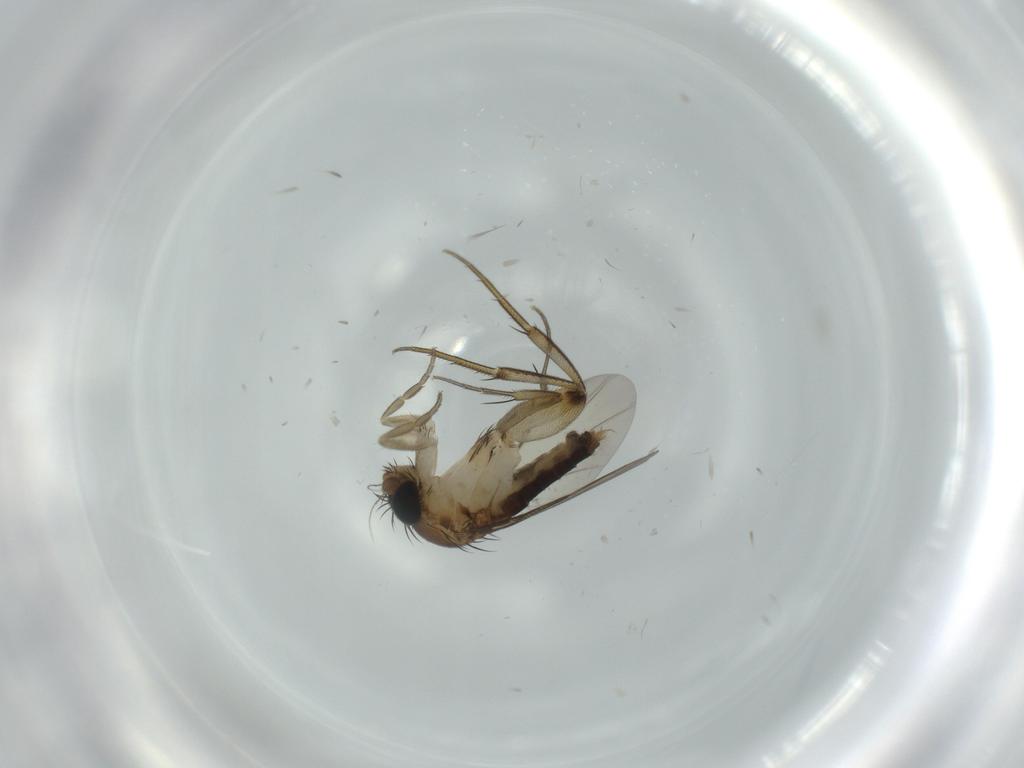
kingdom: Animalia
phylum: Arthropoda
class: Insecta
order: Diptera
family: Phoridae
